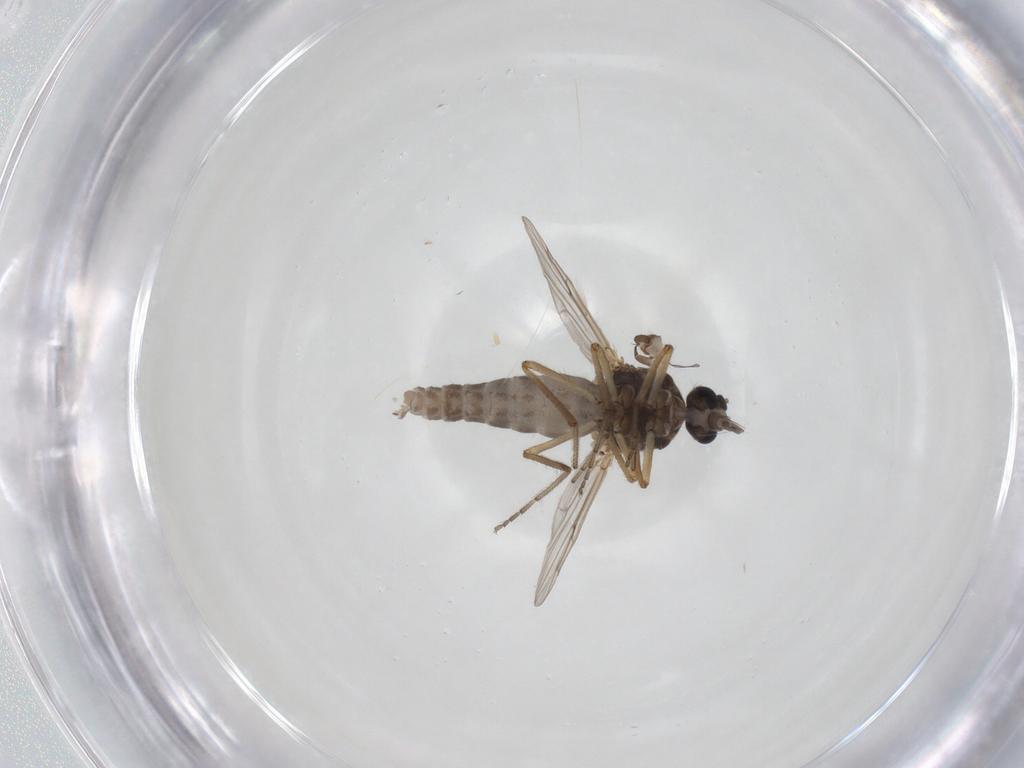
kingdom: Animalia
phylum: Arthropoda
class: Insecta
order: Diptera
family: Ceratopogonidae
